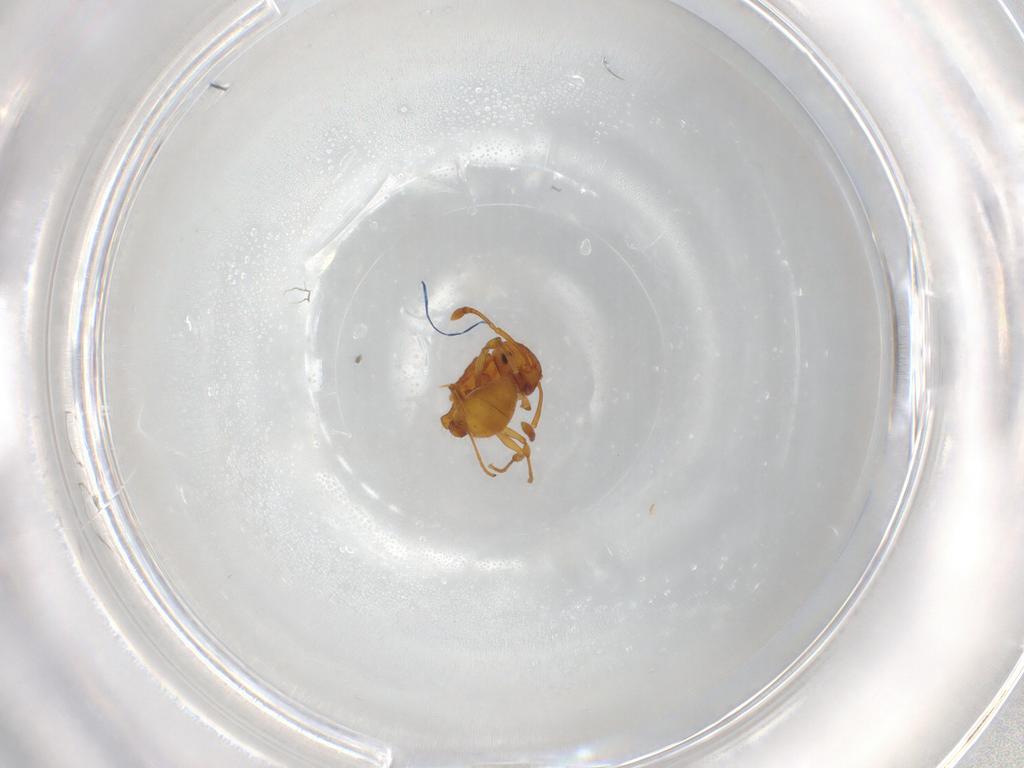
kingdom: Animalia
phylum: Arthropoda
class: Insecta
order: Hymenoptera
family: Formicidae
